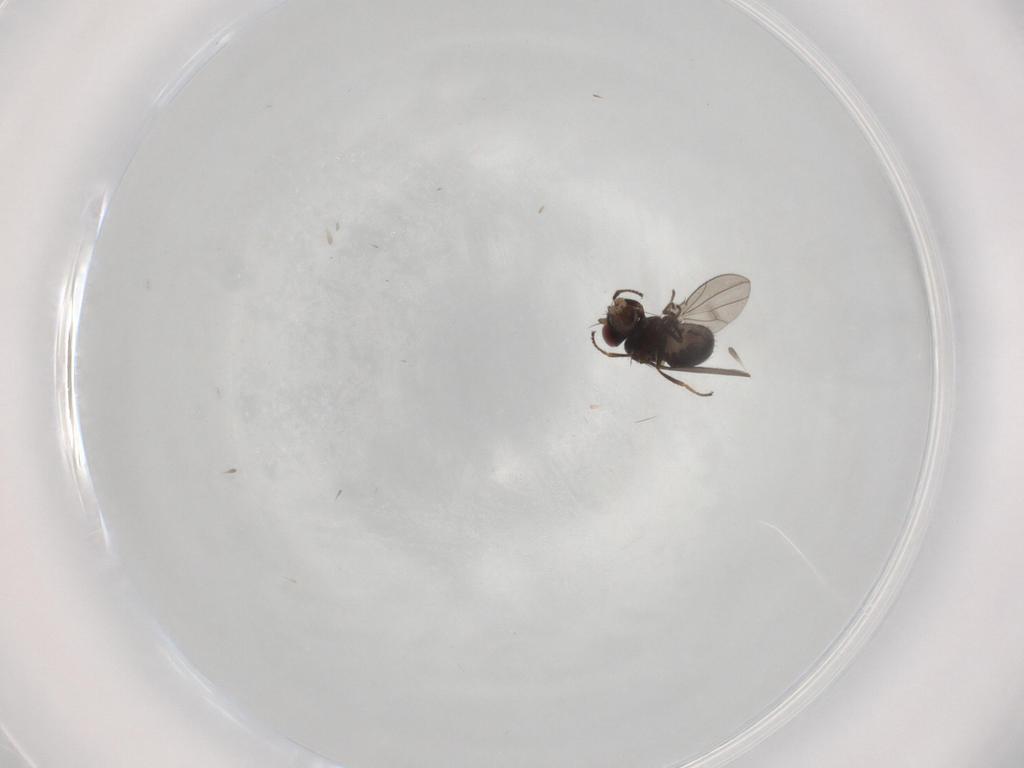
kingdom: Animalia
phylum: Arthropoda
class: Insecta
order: Diptera
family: Ephydridae
